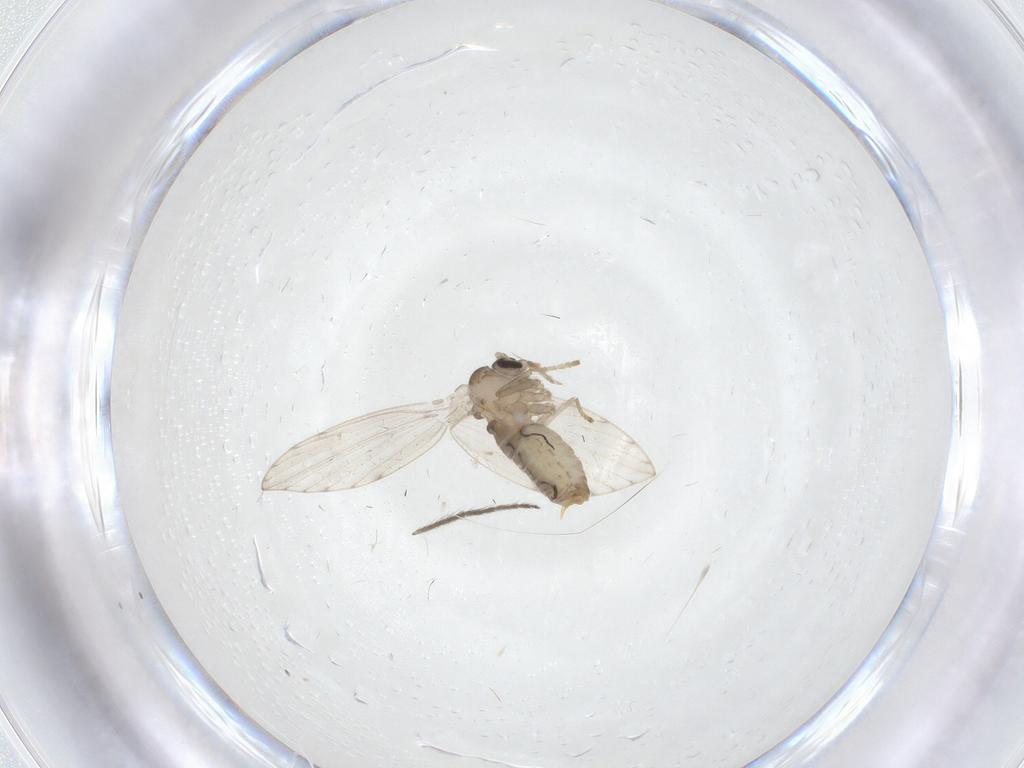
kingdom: Animalia
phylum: Arthropoda
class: Insecta
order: Diptera
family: Psychodidae
